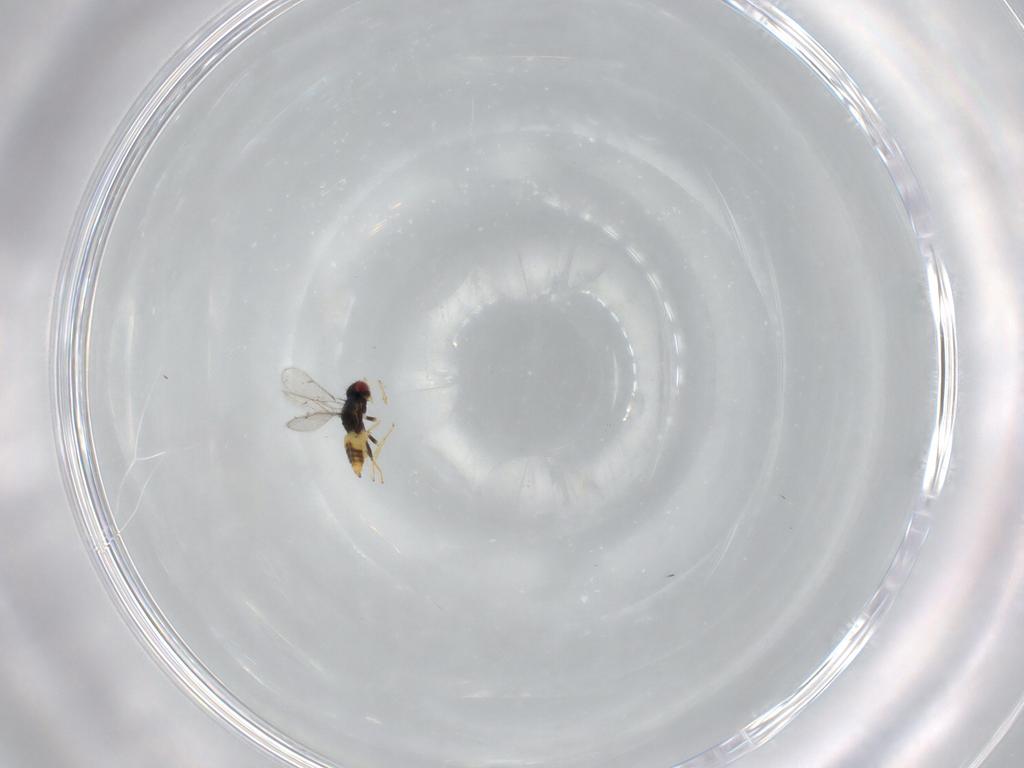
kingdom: Animalia
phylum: Arthropoda
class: Insecta
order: Hymenoptera
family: Eulophidae
